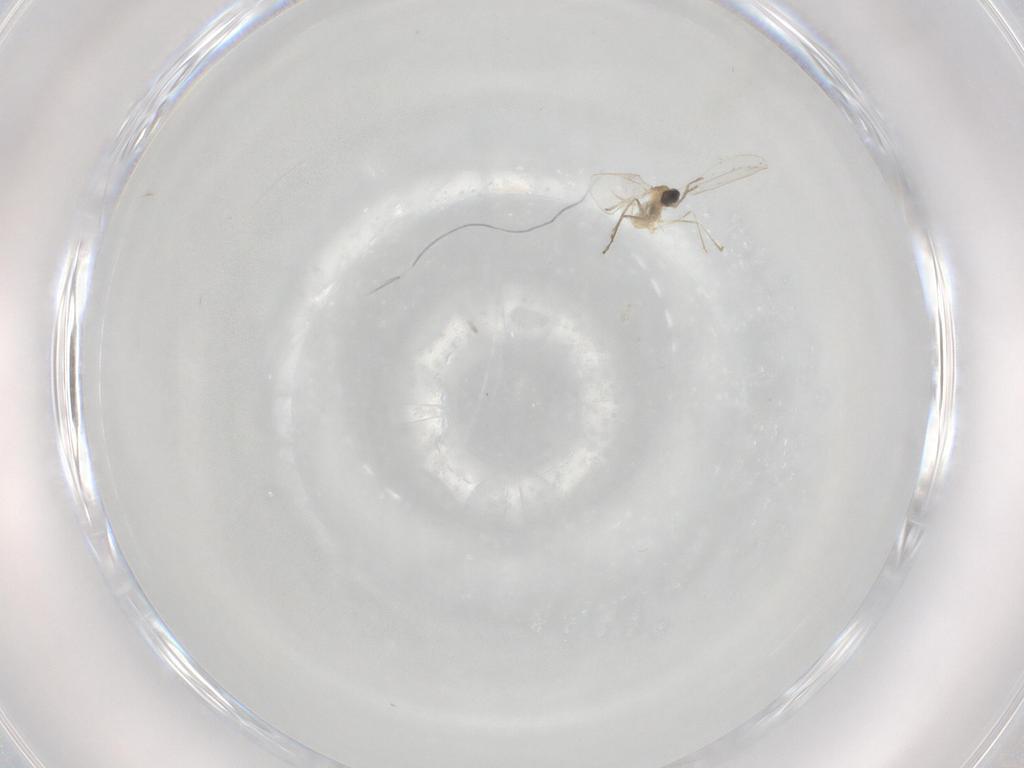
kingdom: Animalia
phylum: Arthropoda
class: Insecta
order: Diptera
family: Cecidomyiidae
